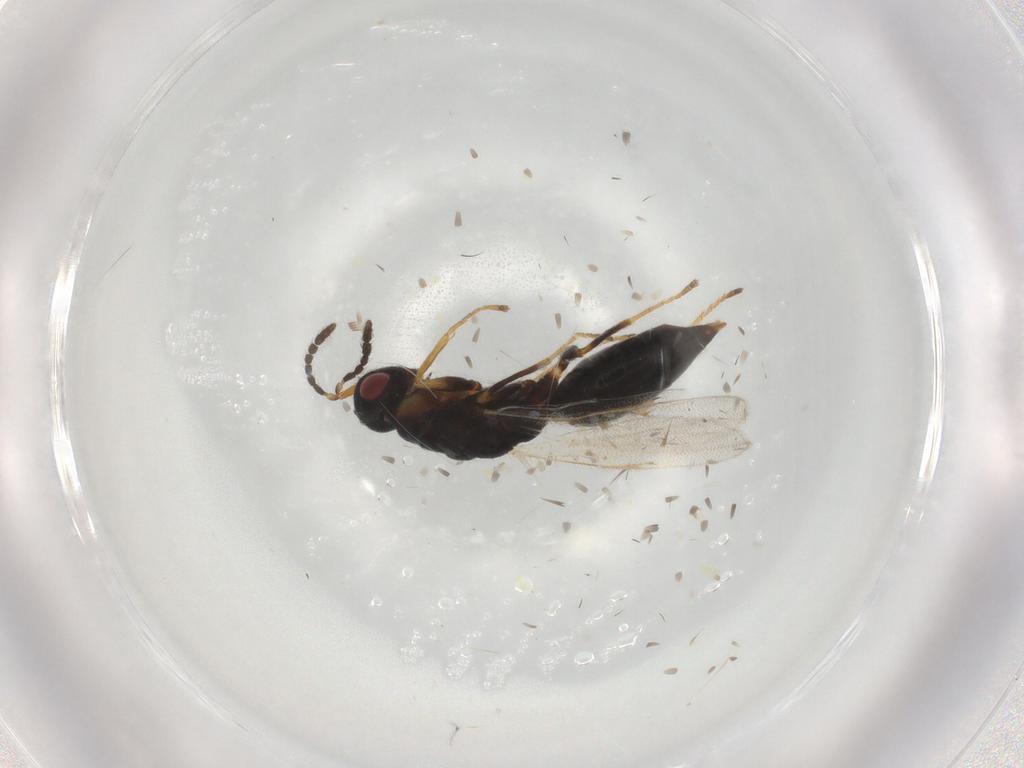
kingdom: Animalia
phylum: Arthropoda
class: Insecta
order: Hymenoptera
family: Eurytomidae
